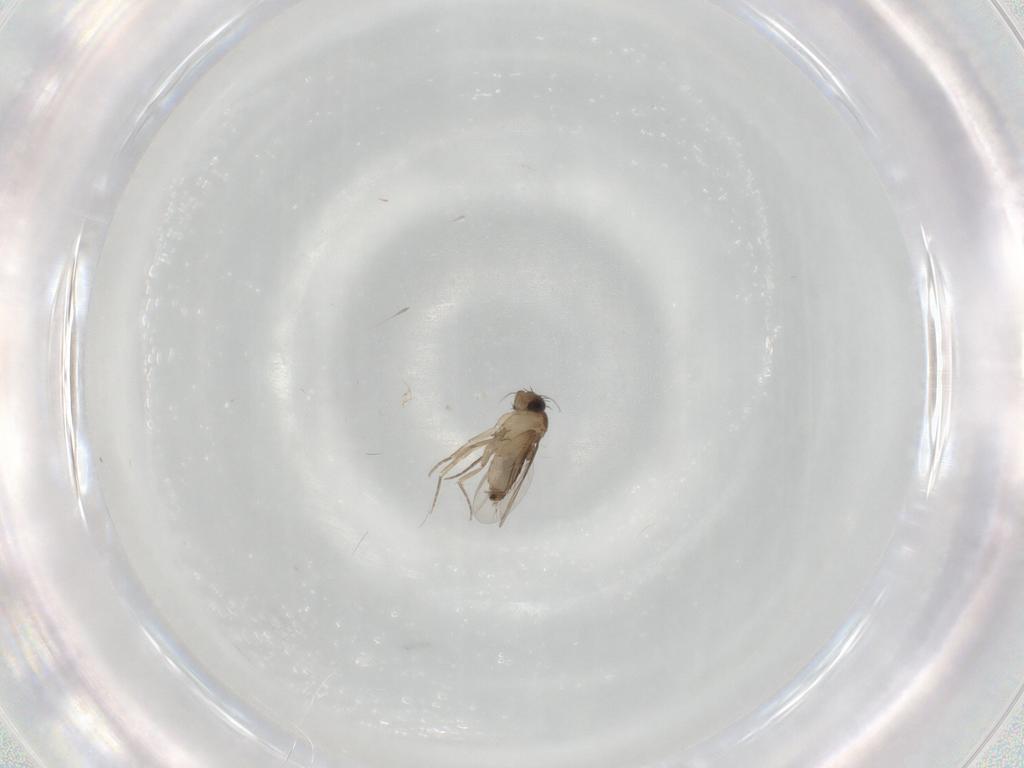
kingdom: Animalia
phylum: Arthropoda
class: Insecta
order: Diptera
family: Phoridae
